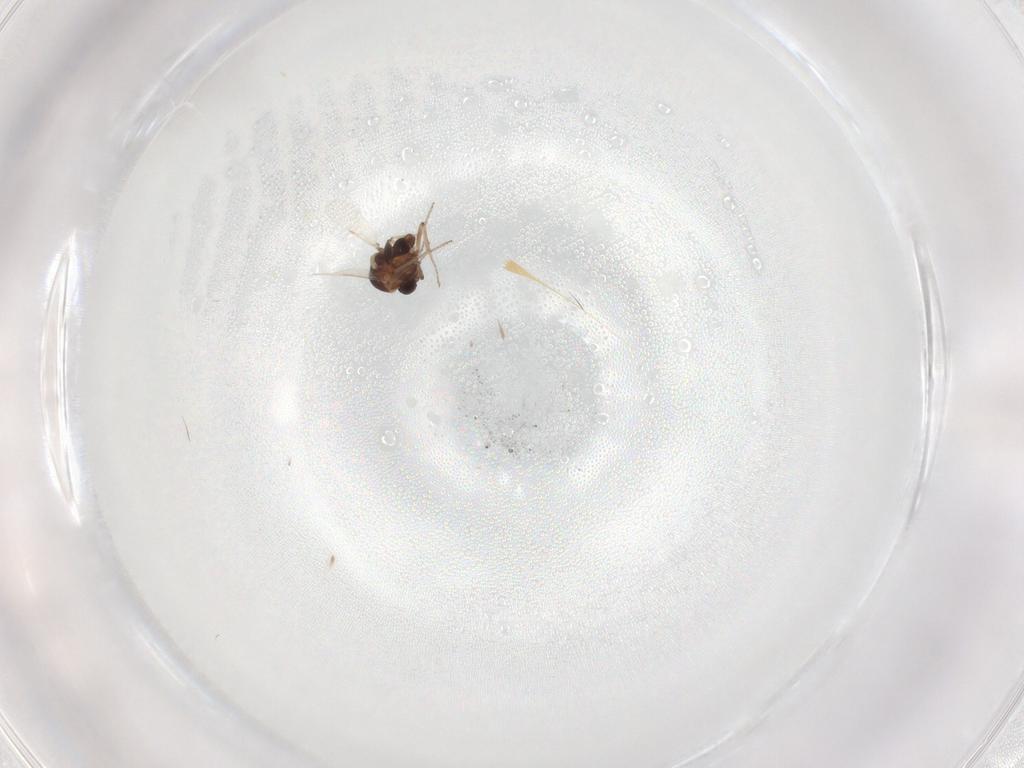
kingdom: Animalia
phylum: Arthropoda
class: Insecta
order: Diptera
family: Ceratopogonidae
